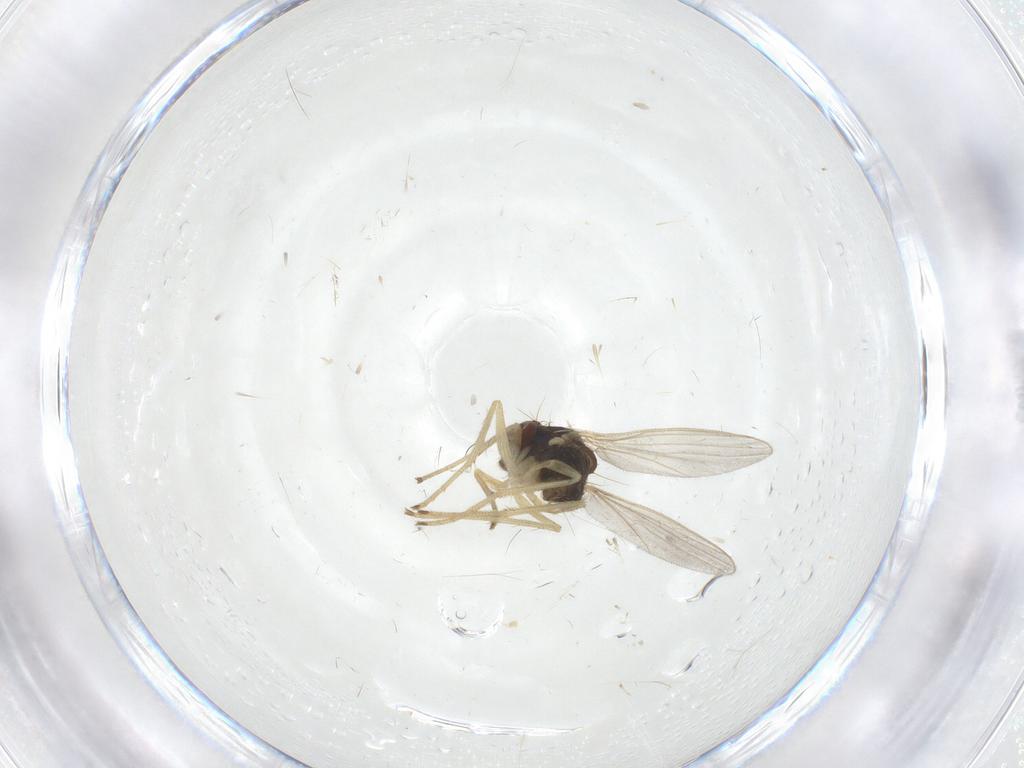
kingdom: Animalia
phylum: Arthropoda
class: Insecta
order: Diptera
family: Dolichopodidae
